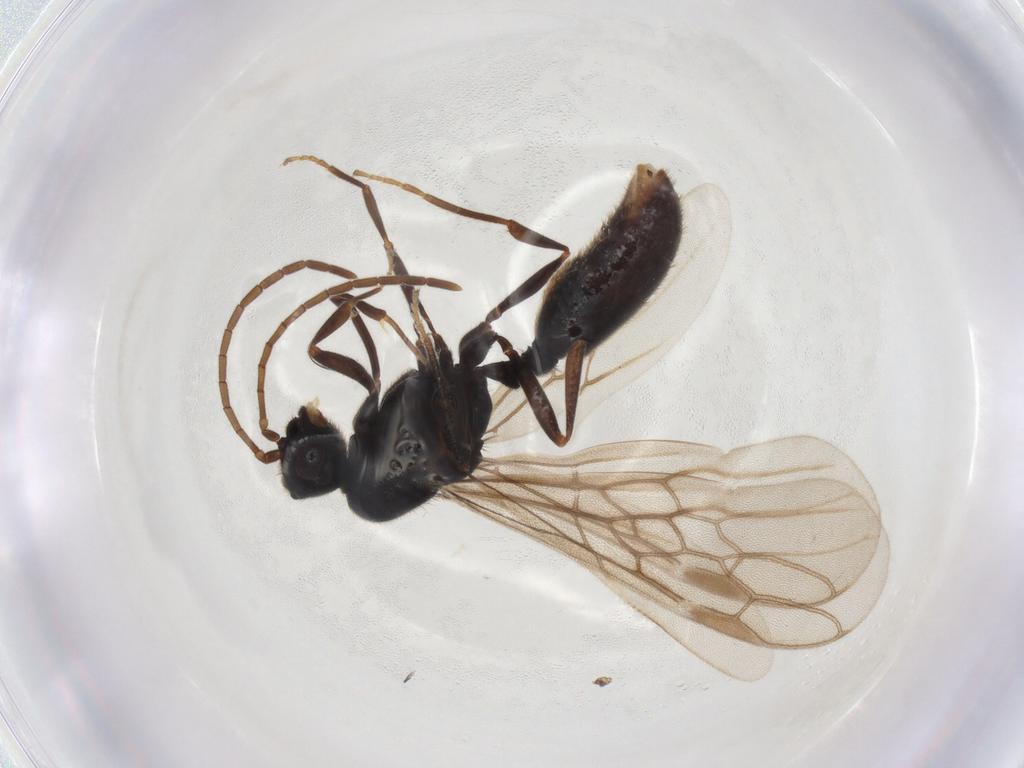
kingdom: Animalia
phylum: Arthropoda
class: Insecta
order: Hymenoptera
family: Formicidae
